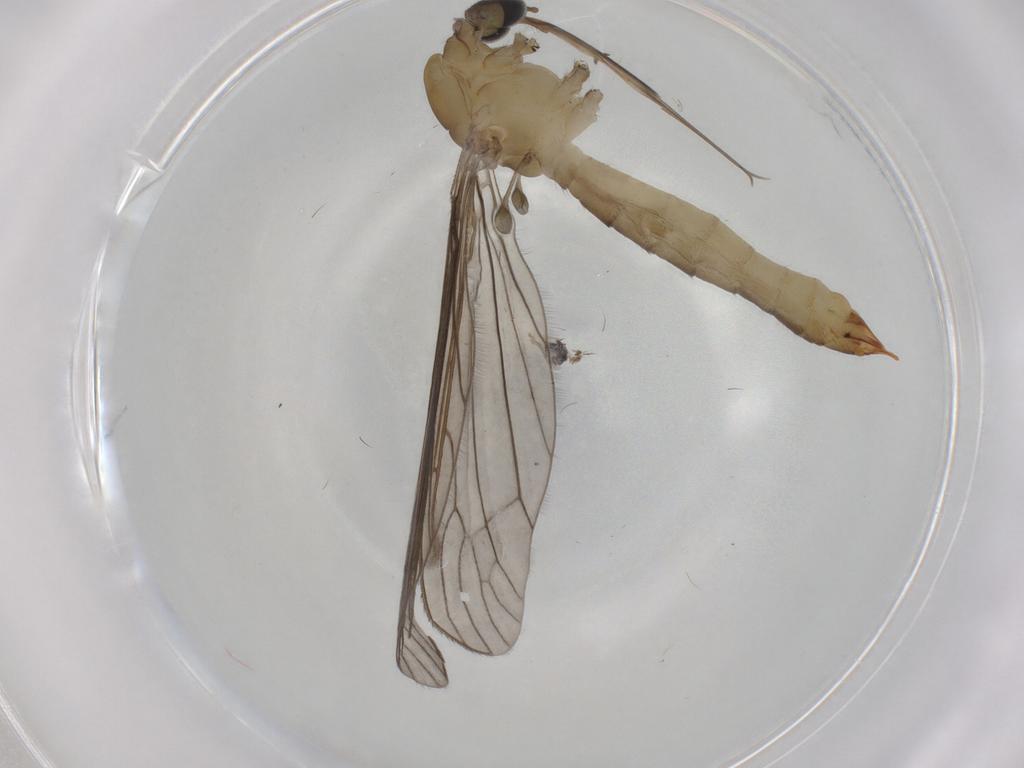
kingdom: Animalia
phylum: Arthropoda
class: Insecta
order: Diptera
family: Limoniidae
